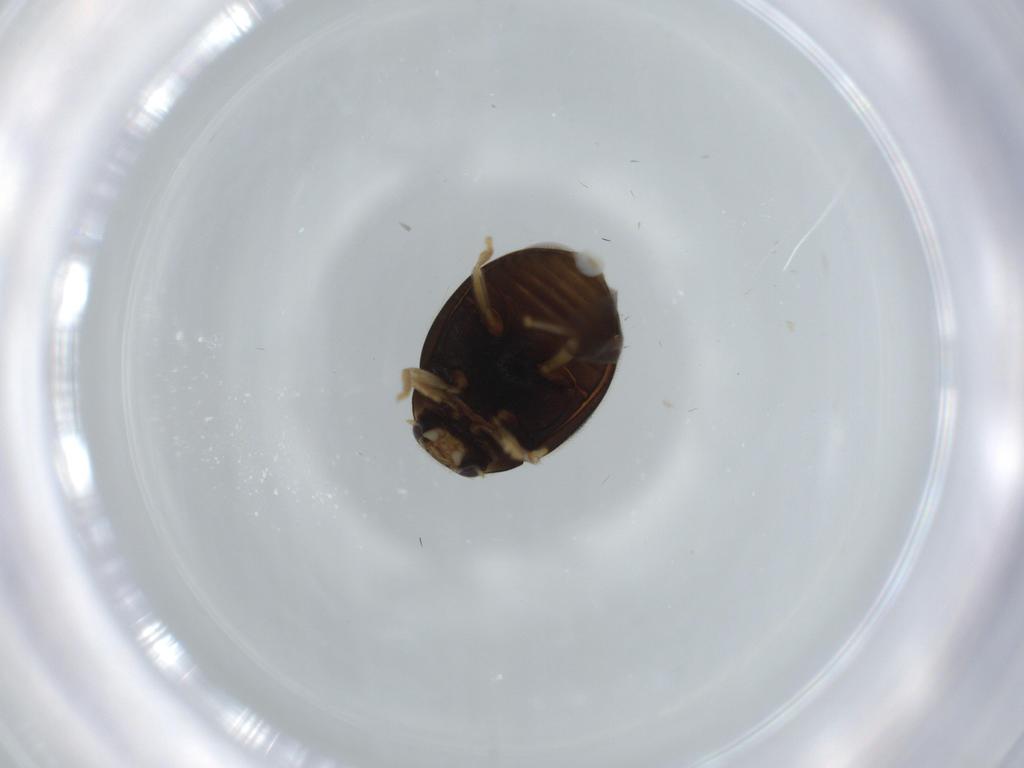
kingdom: Animalia
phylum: Arthropoda
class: Insecta
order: Coleoptera
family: Coccinellidae
